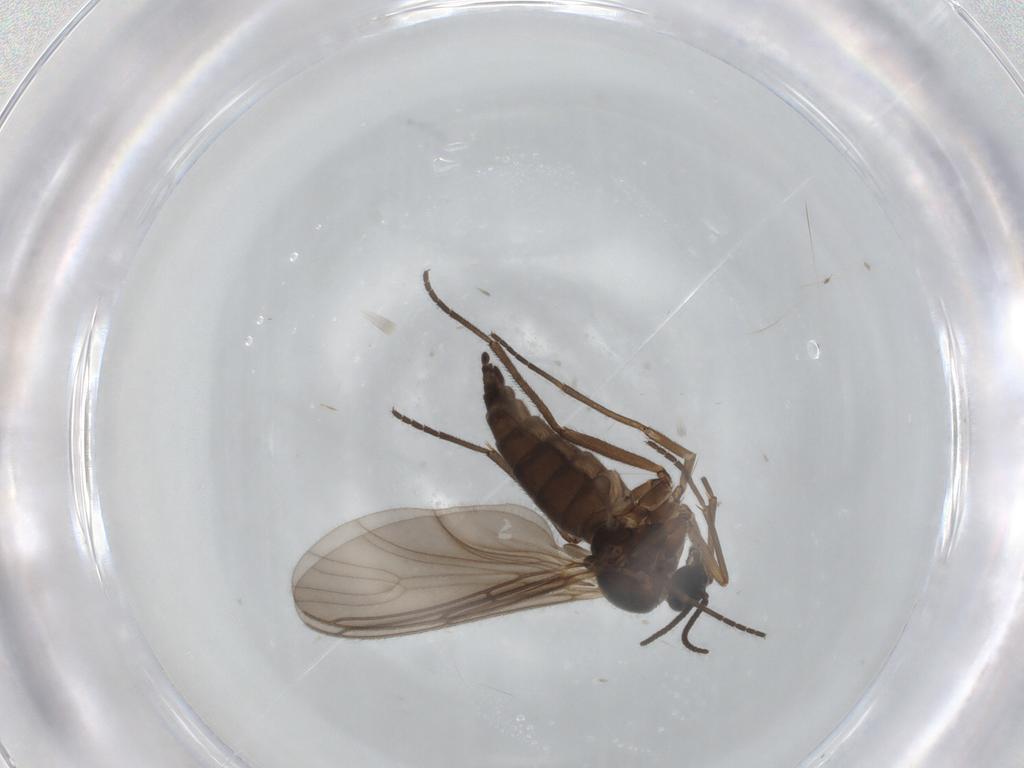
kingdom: Animalia
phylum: Arthropoda
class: Insecta
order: Diptera
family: Sciaridae
